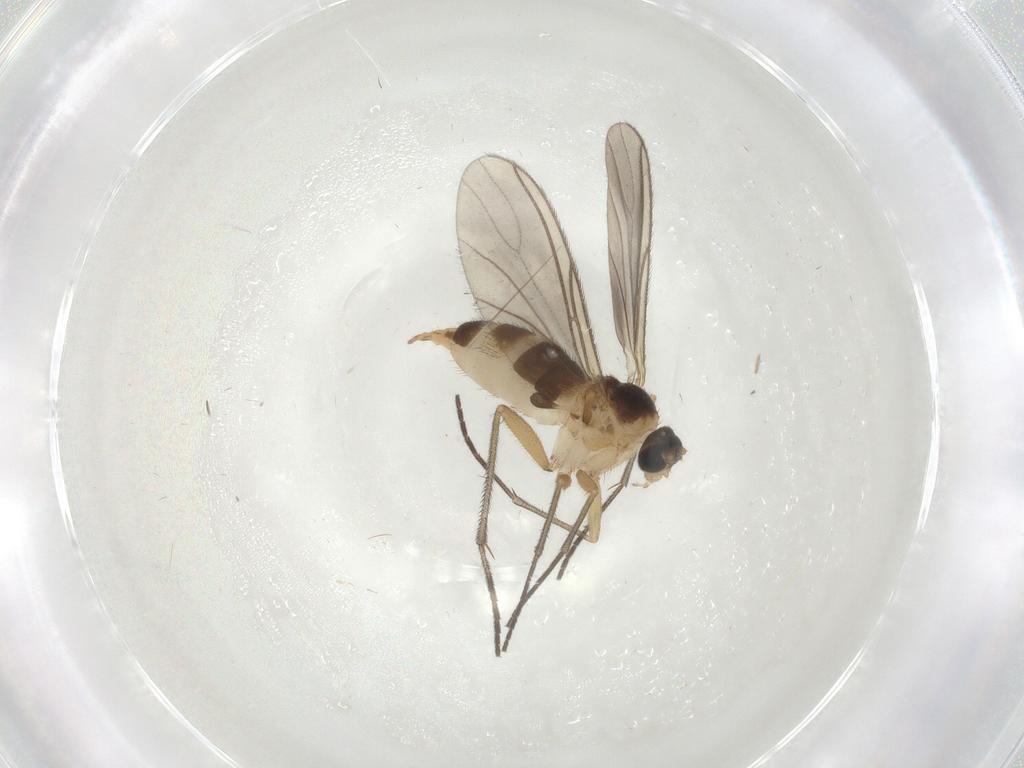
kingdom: Animalia
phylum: Arthropoda
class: Insecta
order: Diptera
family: Sciaridae
